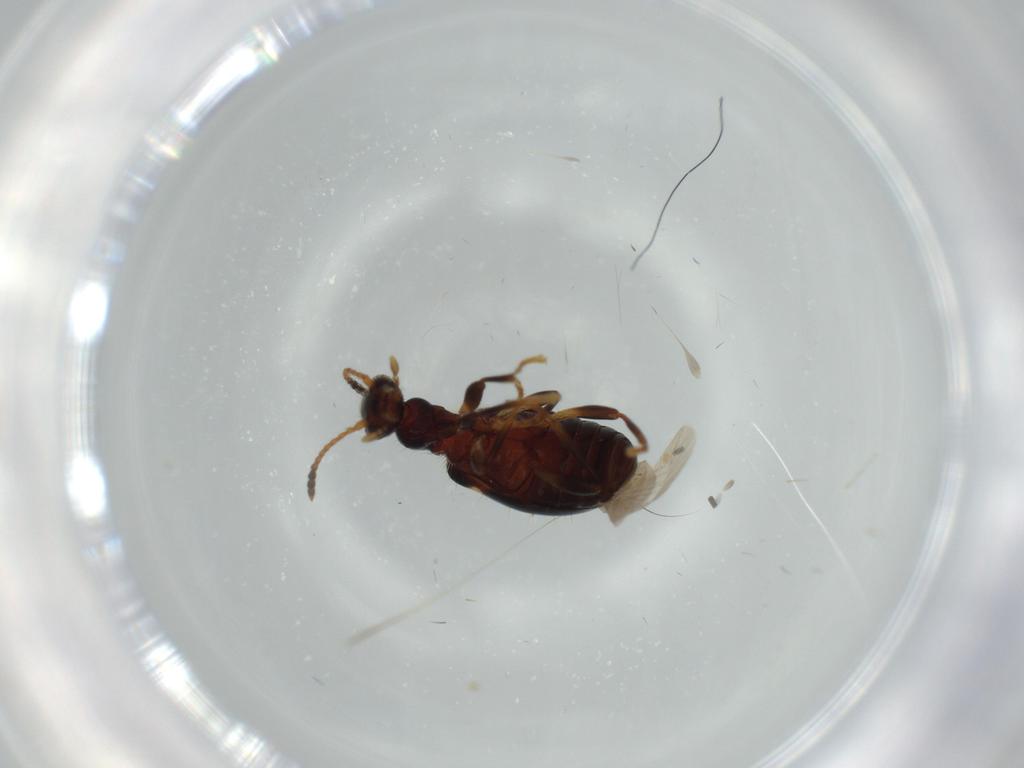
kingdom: Animalia
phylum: Arthropoda
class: Insecta
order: Coleoptera
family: Anthicidae
